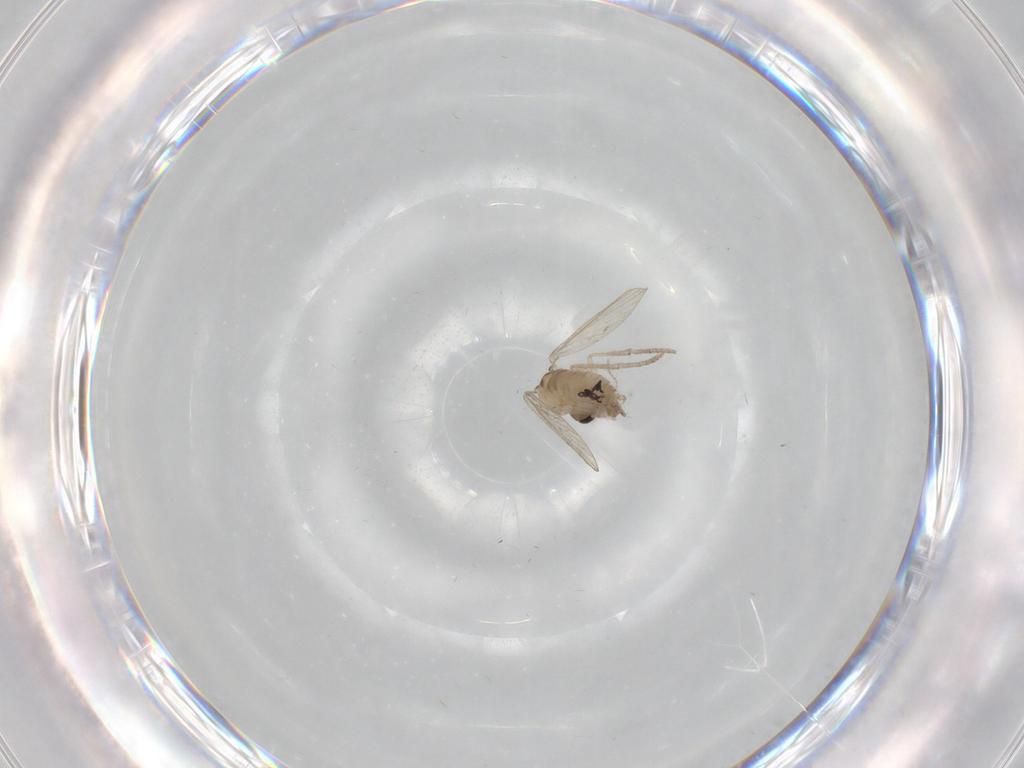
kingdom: Animalia
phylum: Arthropoda
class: Insecta
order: Diptera
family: Psychodidae
